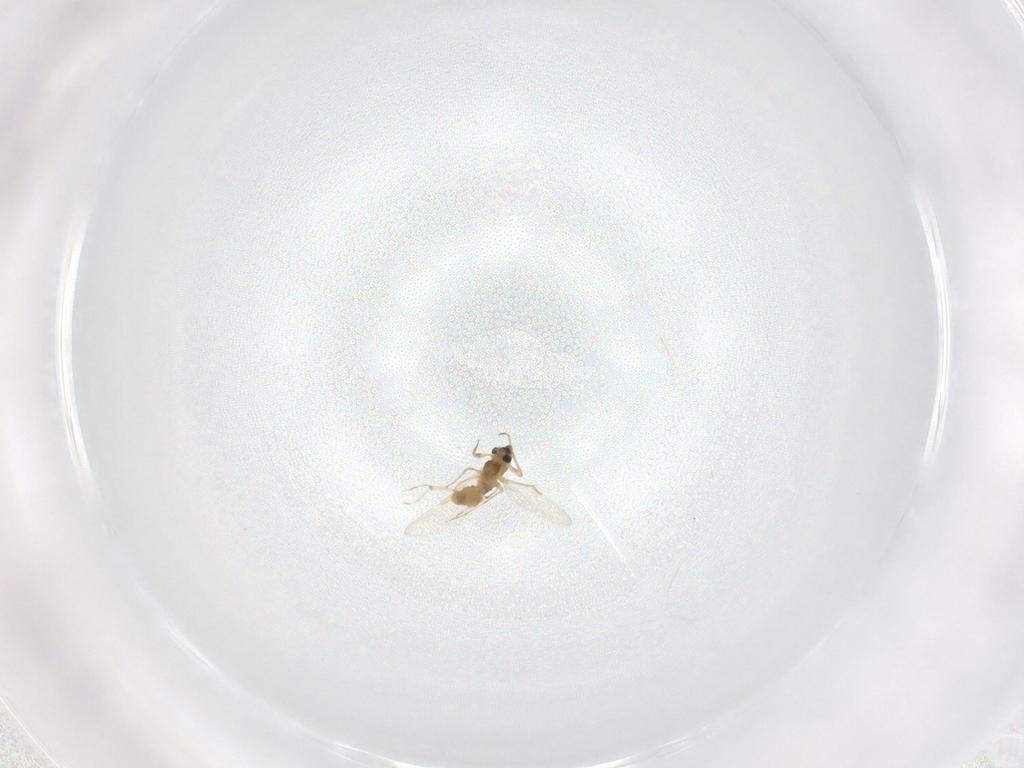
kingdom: Animalia
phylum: Arthropoda
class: Insecta
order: Diptera
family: Chironomidae
